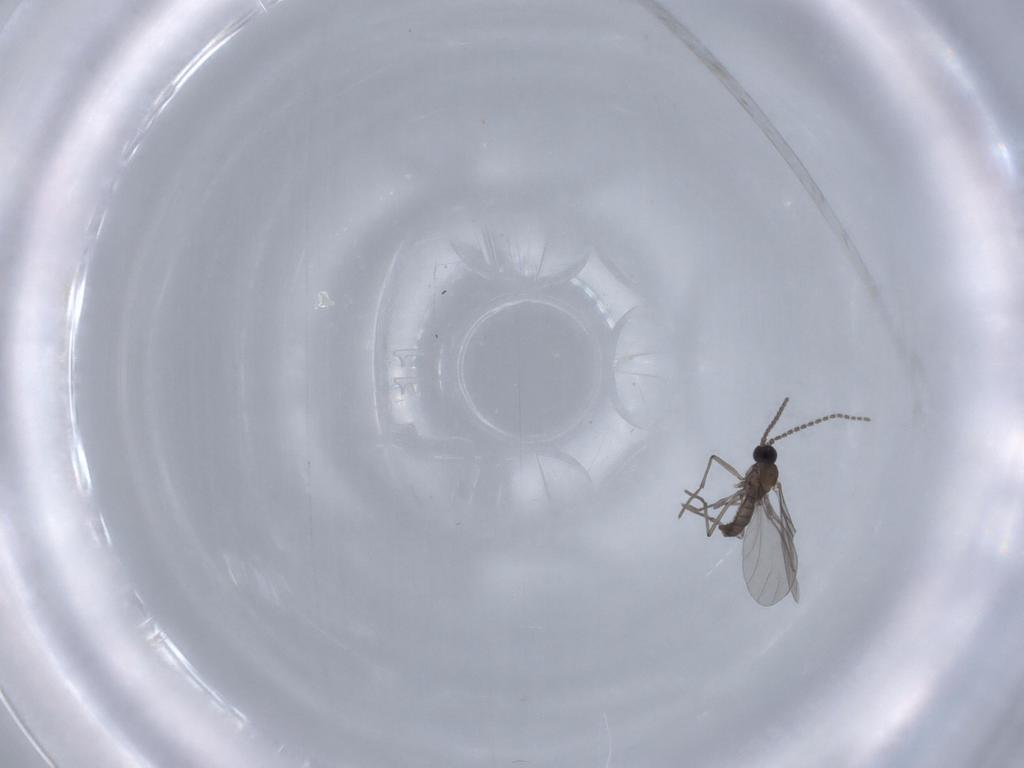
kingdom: Animalia
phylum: Arthropoda
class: Insecta
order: Diptera
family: Sciaridae
